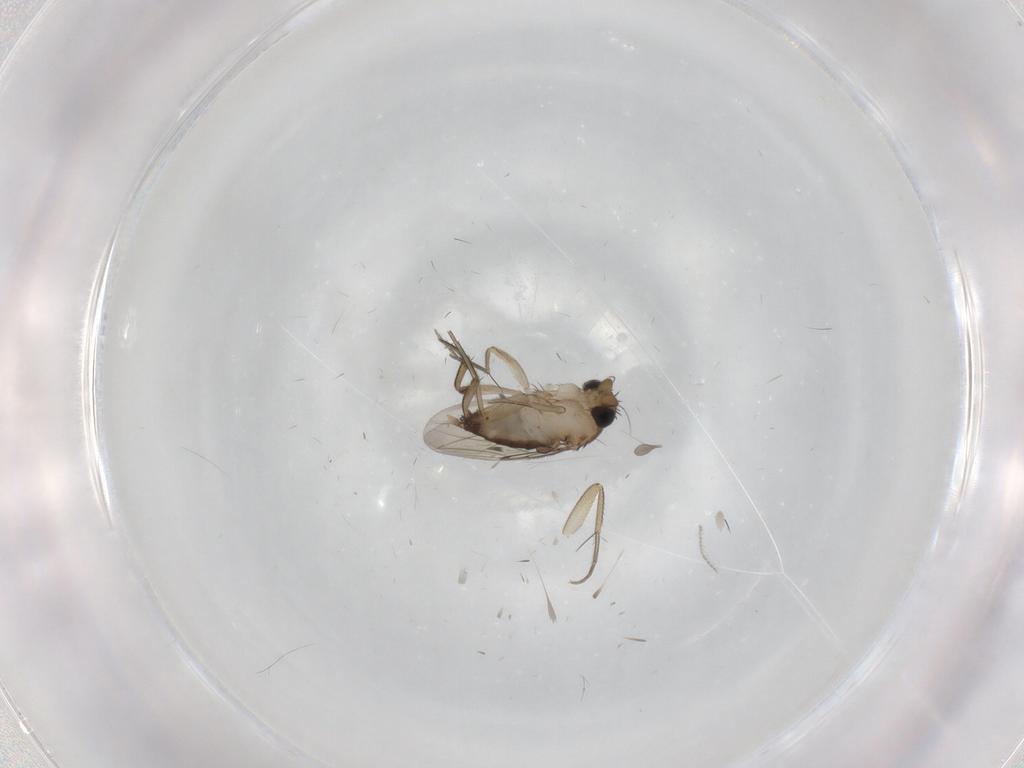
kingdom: Animalia
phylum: Arthropoda
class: Insecta
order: Diptera
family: Phoridae
